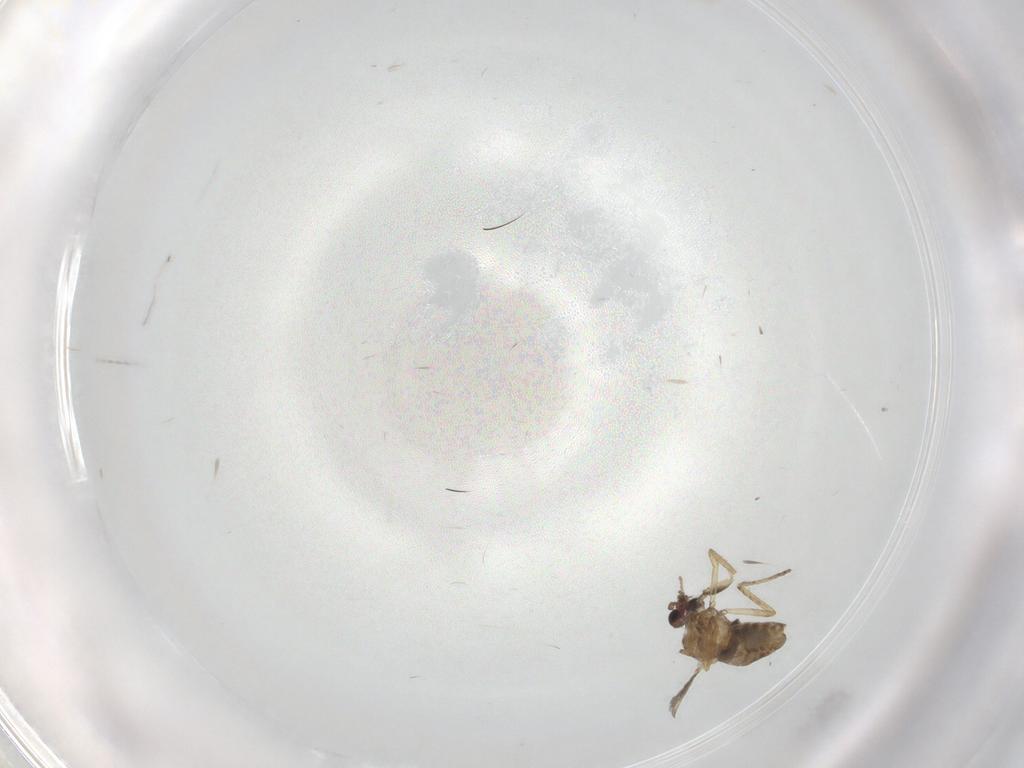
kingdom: Animalia
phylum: Arthropoda
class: Insecta
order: Diptera
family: Ceratopogonidae
